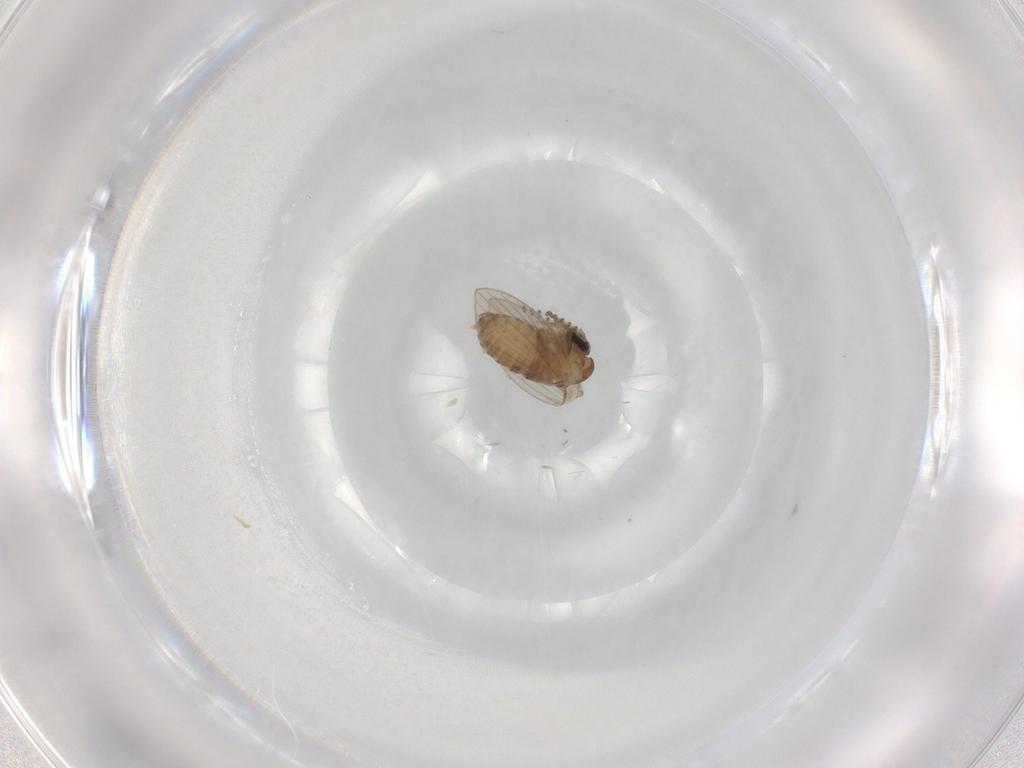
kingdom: Animalia
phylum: Arthropoda
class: Insecta
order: Diptera
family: Psychodidae
